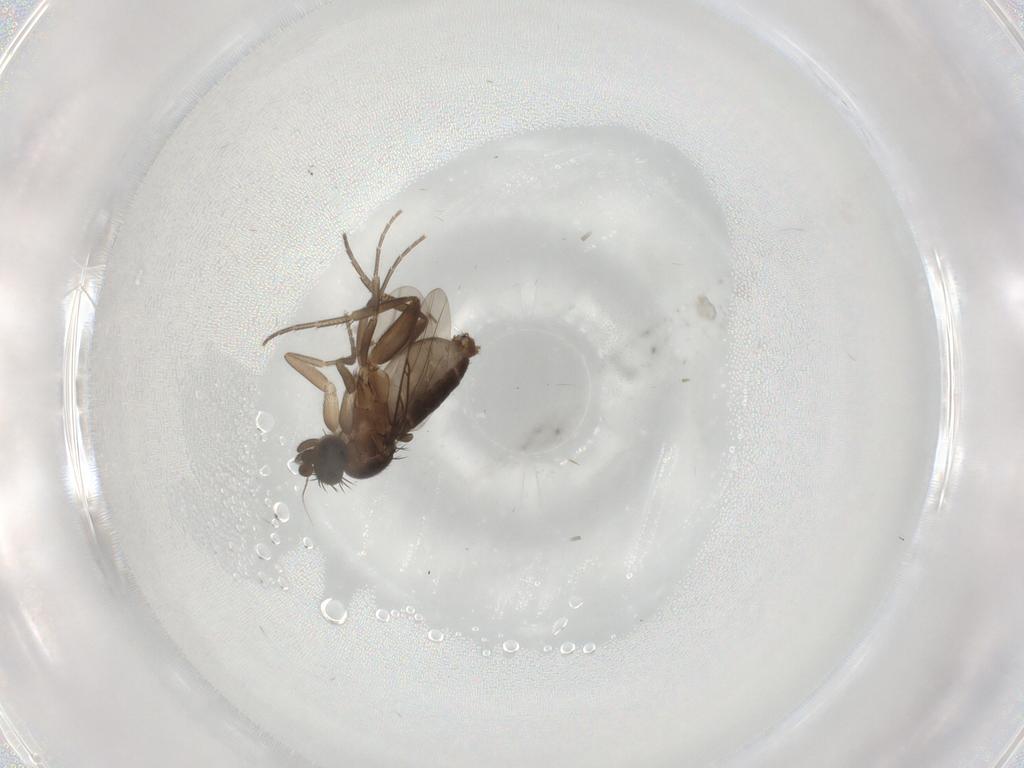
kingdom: Animalia
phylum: Arthropoda
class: Insecta
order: Diptera
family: Phoridae
